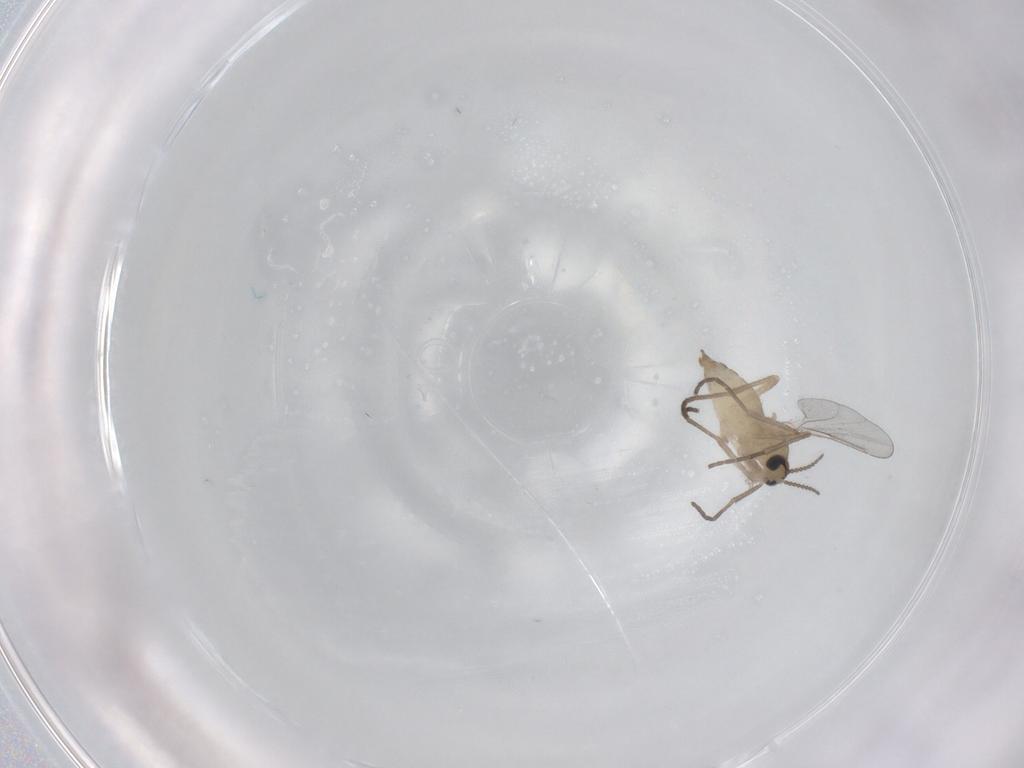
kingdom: Animalia
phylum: Arthropoda
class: Insecta
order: Diptera
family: Cecidomyiidae
